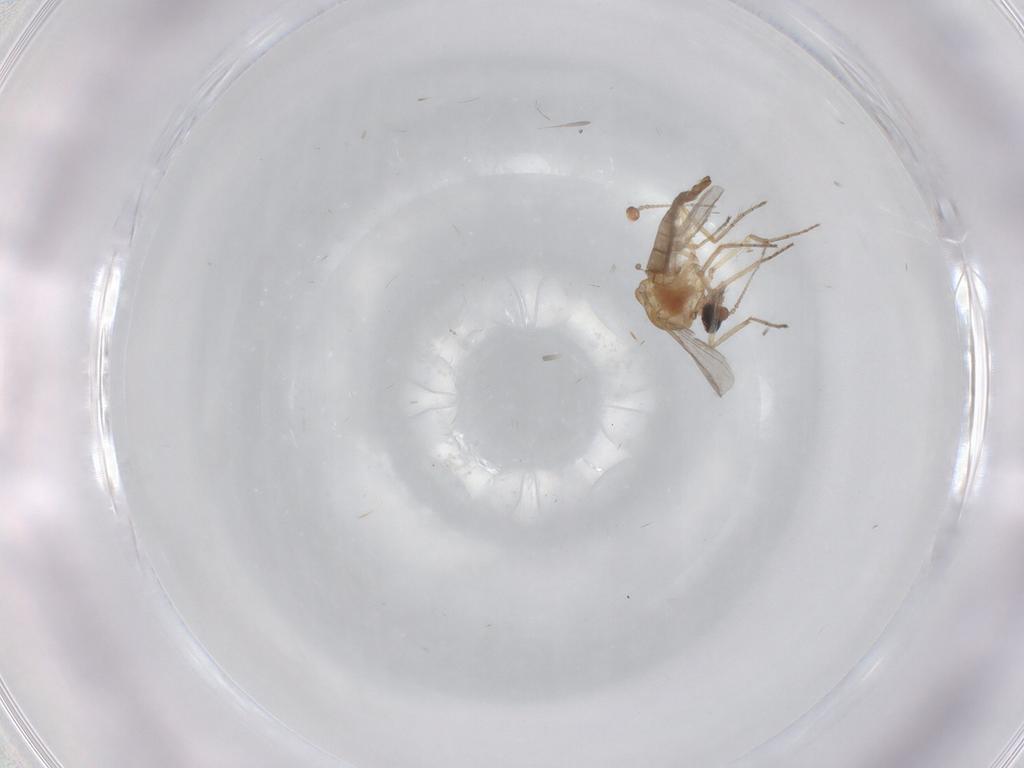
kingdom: Animalia
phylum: Arthropoda
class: Insecta
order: Diptera
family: Ceratopogonidae
